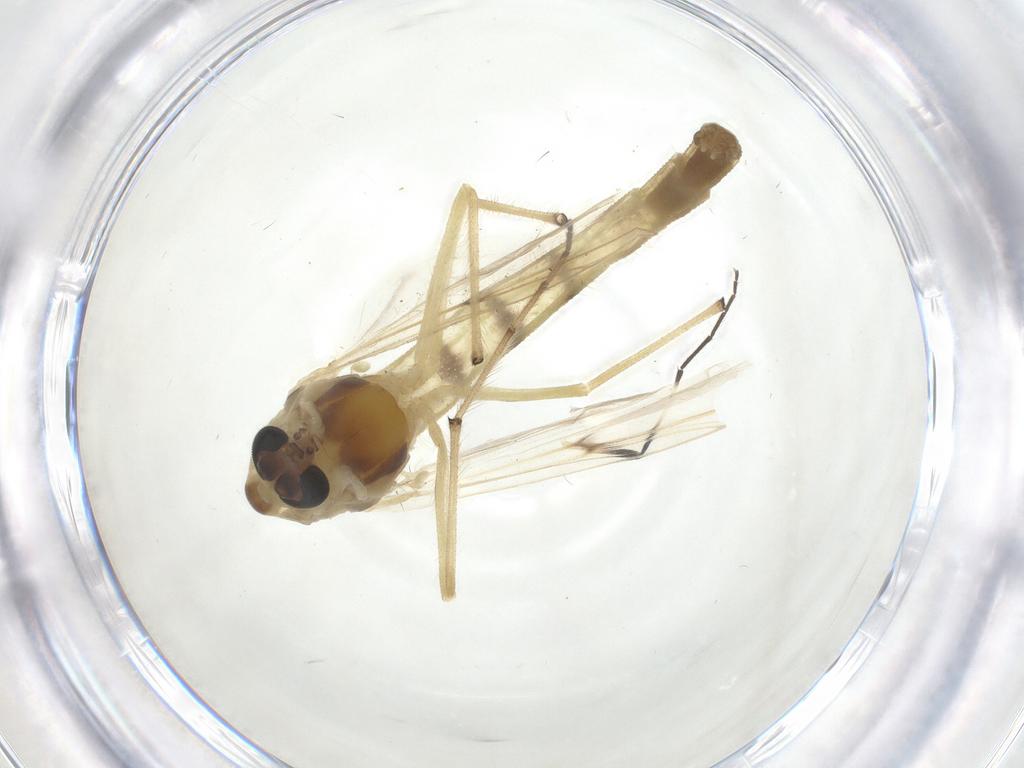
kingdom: Animalia
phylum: Arthropoda
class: Insecta
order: Diptera
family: Chironomidae
